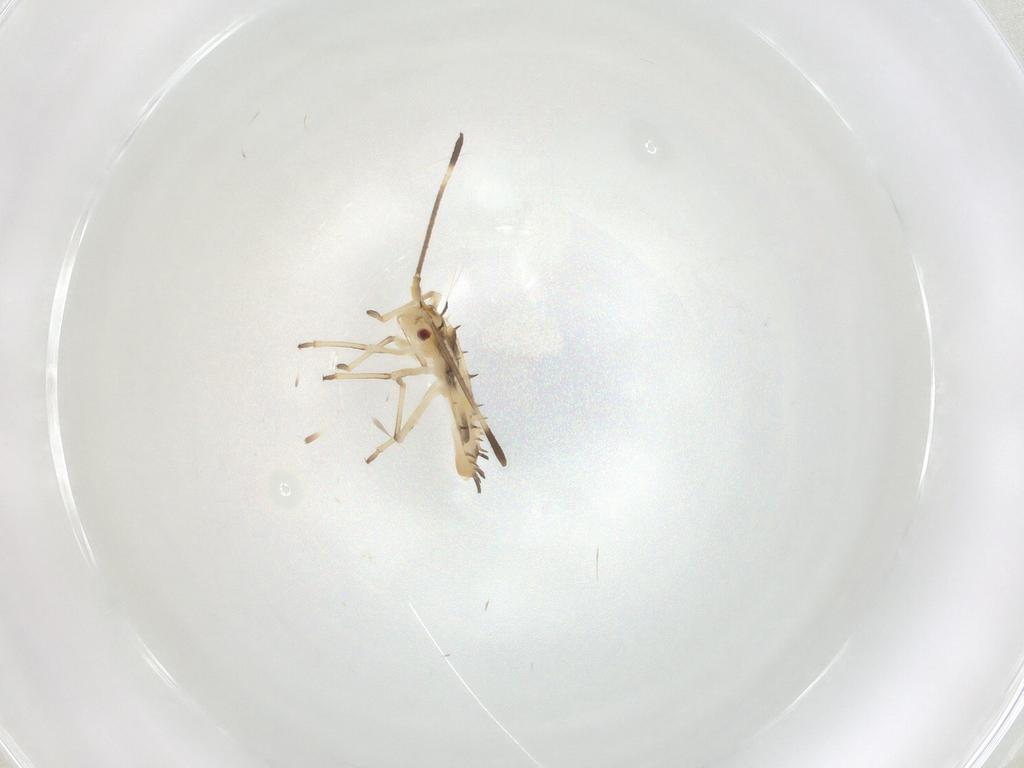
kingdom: Animalia
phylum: Arthropoda
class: Insecta
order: Hemiptera
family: Tingidae
